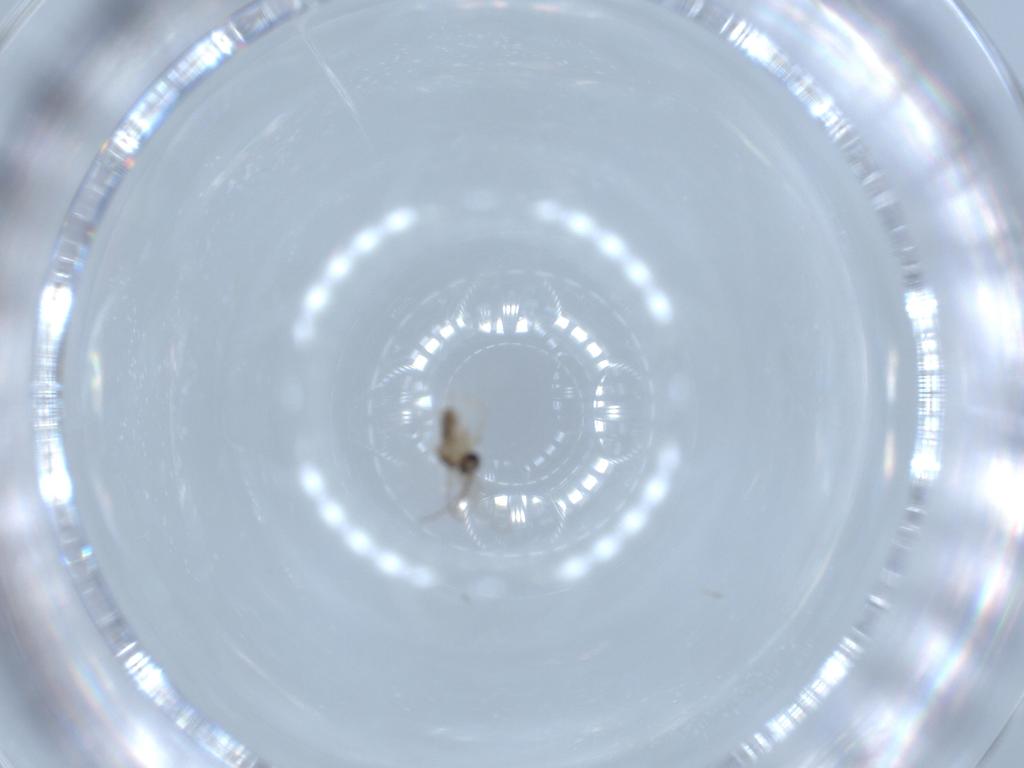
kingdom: Animalia
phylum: Arthropoda
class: Insecta
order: Diptera
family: Cecidomyiidae
